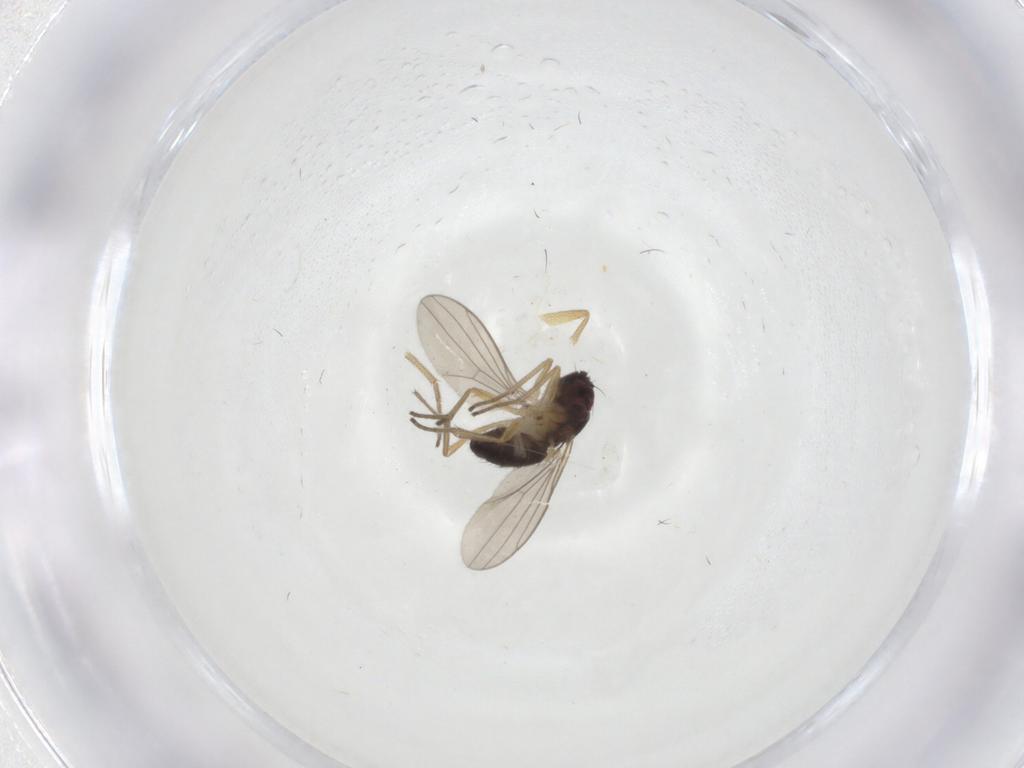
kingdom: Animalia
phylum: Arthropoda
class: Insecta
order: Diptera
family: Dolichopodidae
